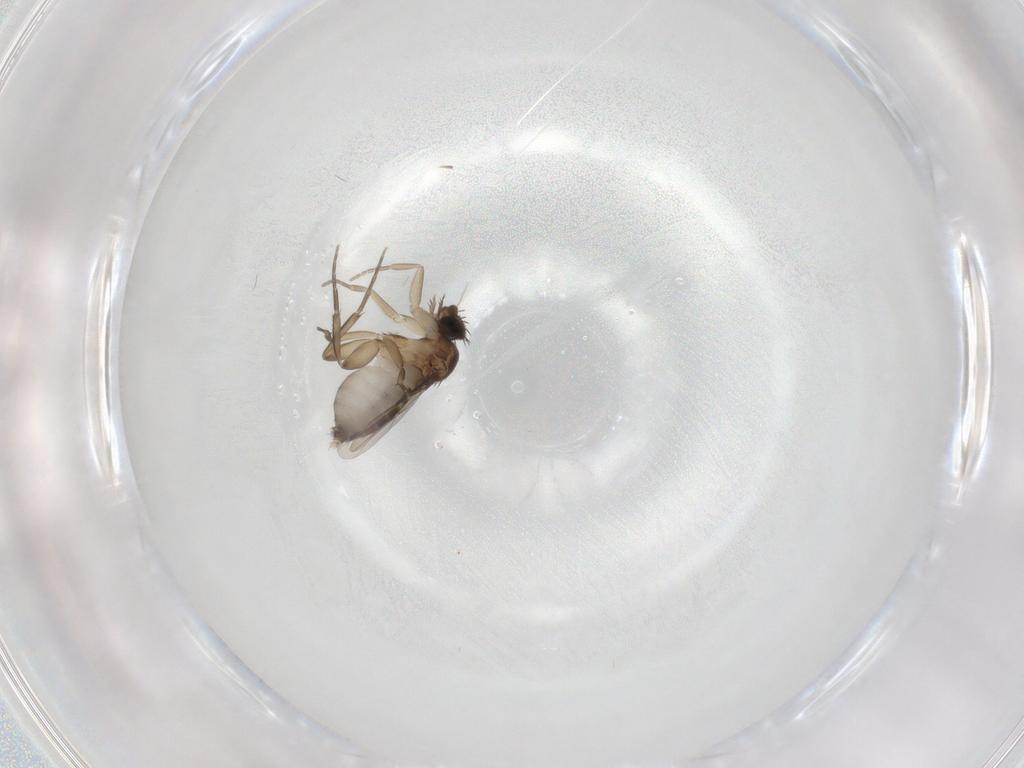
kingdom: Animalia
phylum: Arthropoda
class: Insecta
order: Diptera
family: Phoridae
